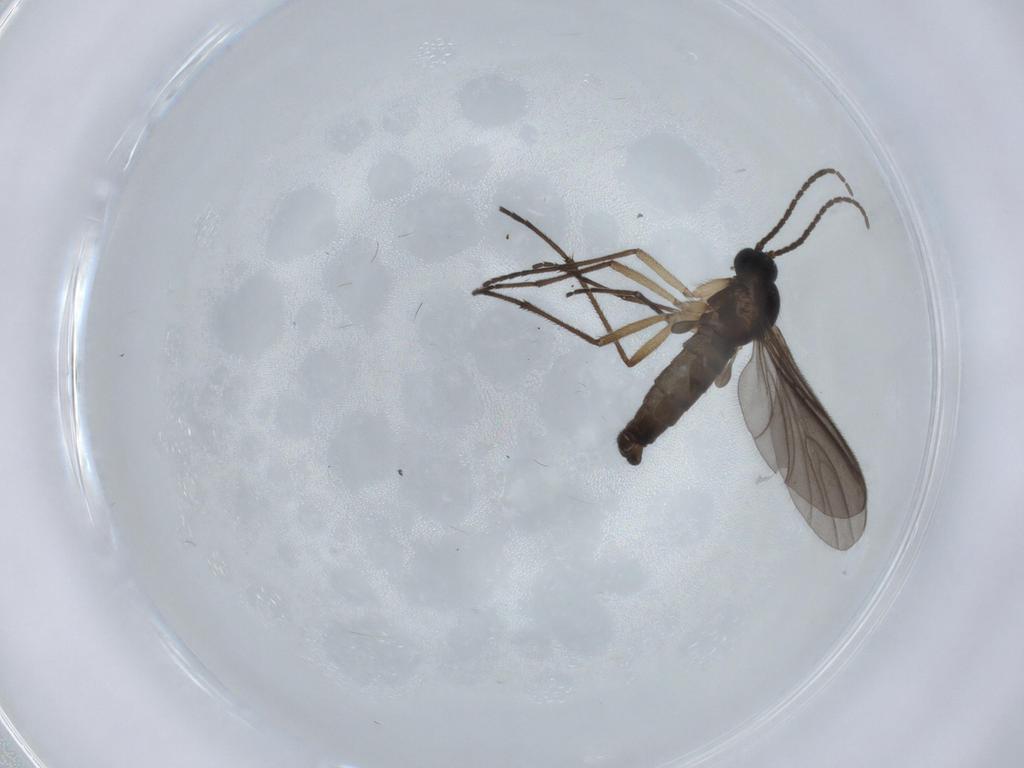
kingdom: Animalia
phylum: Arthropoda
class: Insecta
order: Diptera
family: Sciaridae
